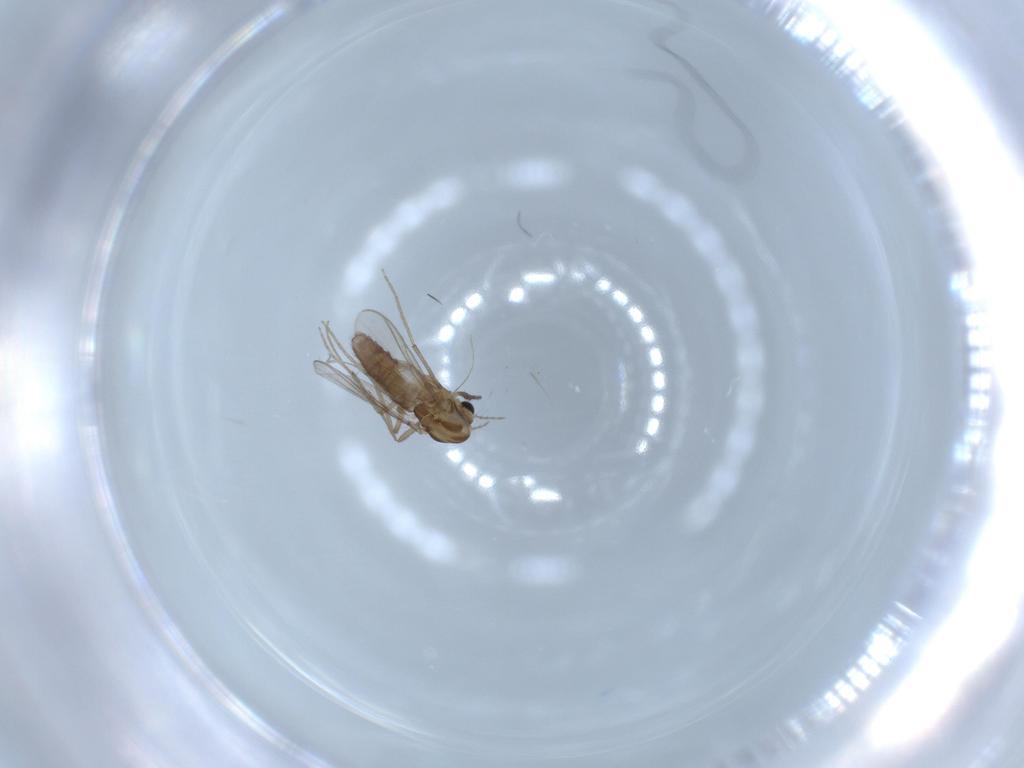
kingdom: Animalia
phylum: Arthropoda
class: Insecta
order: Diptera
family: Chironomidae
